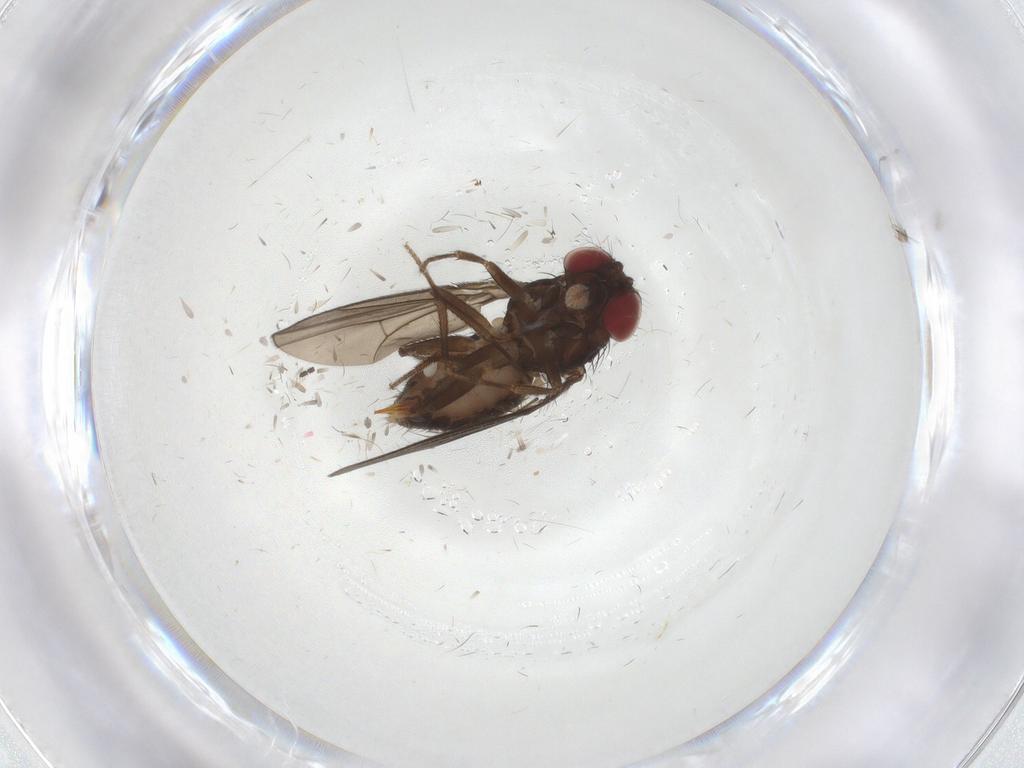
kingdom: Animalia
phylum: Arthropoda
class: Insecta
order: Diptera
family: Drosophilidae
